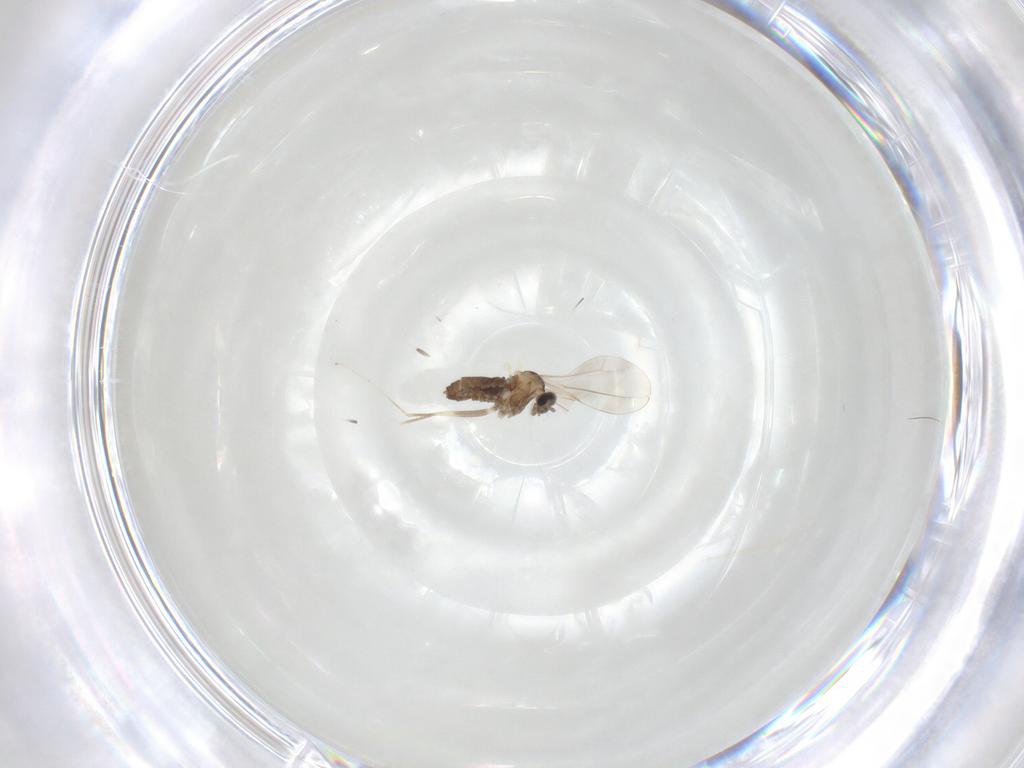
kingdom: Animalia
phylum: Arthropoda
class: Insecta
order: Diptera
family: Cecidomyiidae
